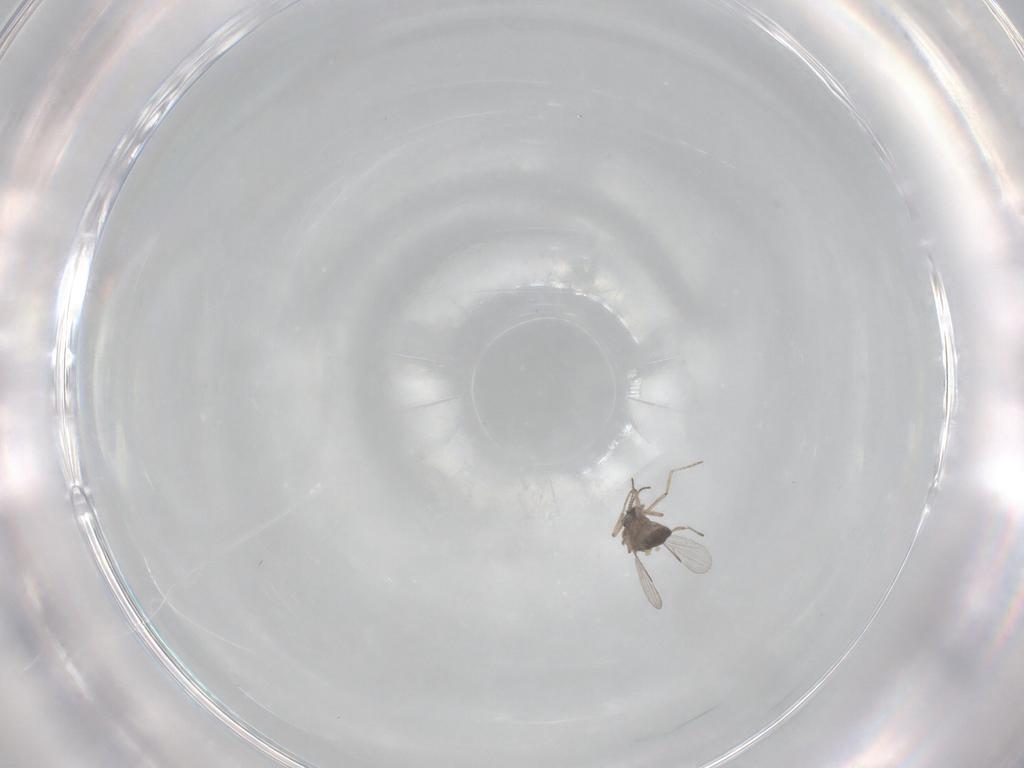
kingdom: Animalia
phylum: Arthropoda
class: Insecta
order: Diptera
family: Ceratopogonidae
